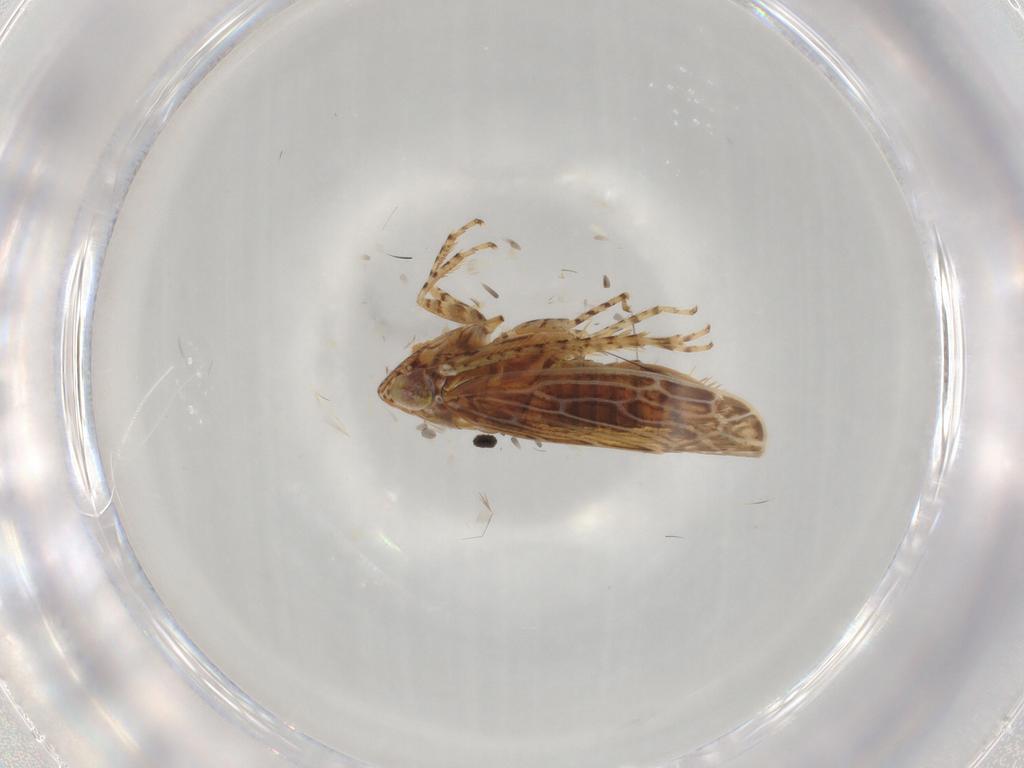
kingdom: Animalia
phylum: Arthropoda
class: Insecta
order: Hemiptera
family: Cicadellidae
